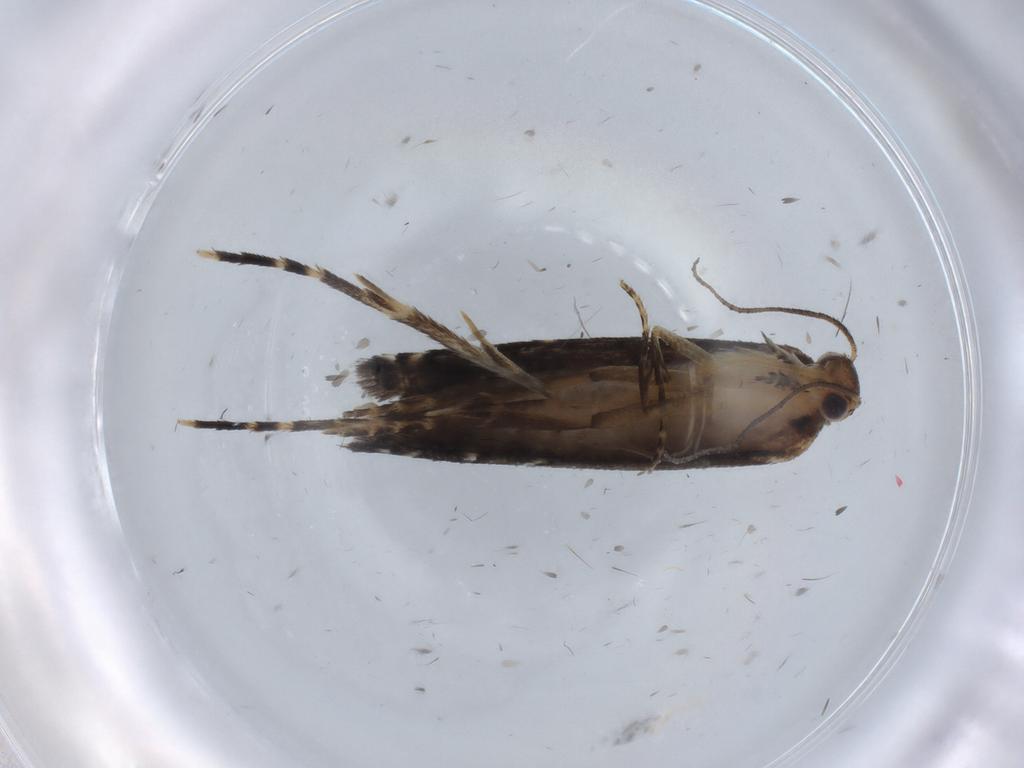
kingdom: Animalia
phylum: Arthropoda
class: Insecta
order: Lepidoptera
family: Glyphipterigidae
